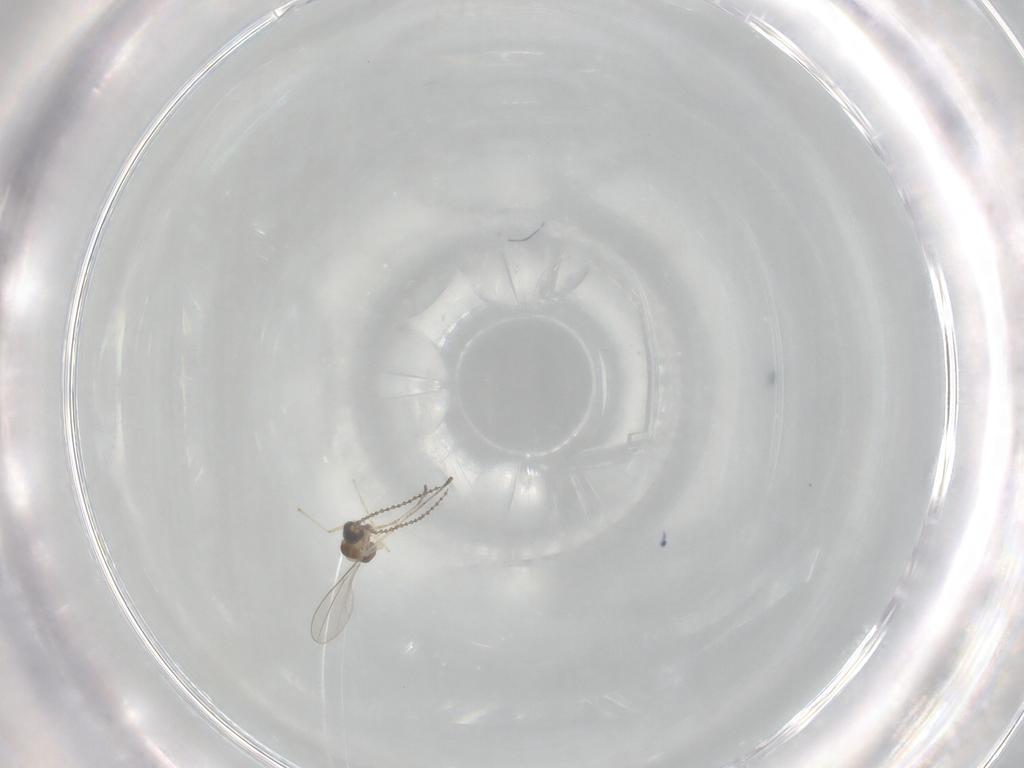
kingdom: Animalia
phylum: Arthropoda
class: Insecta
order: Diptera
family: Cecidomyiidae
